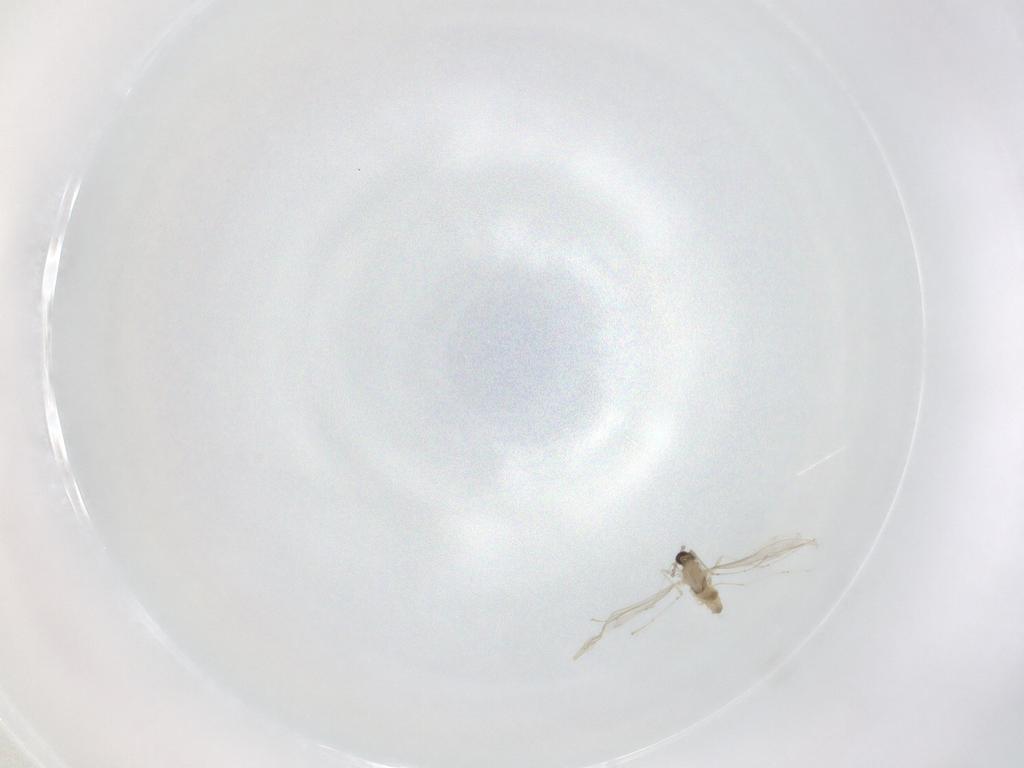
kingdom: Animalia
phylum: Arthropoda
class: Insecta
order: Diptera
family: Cecidomyiidae
